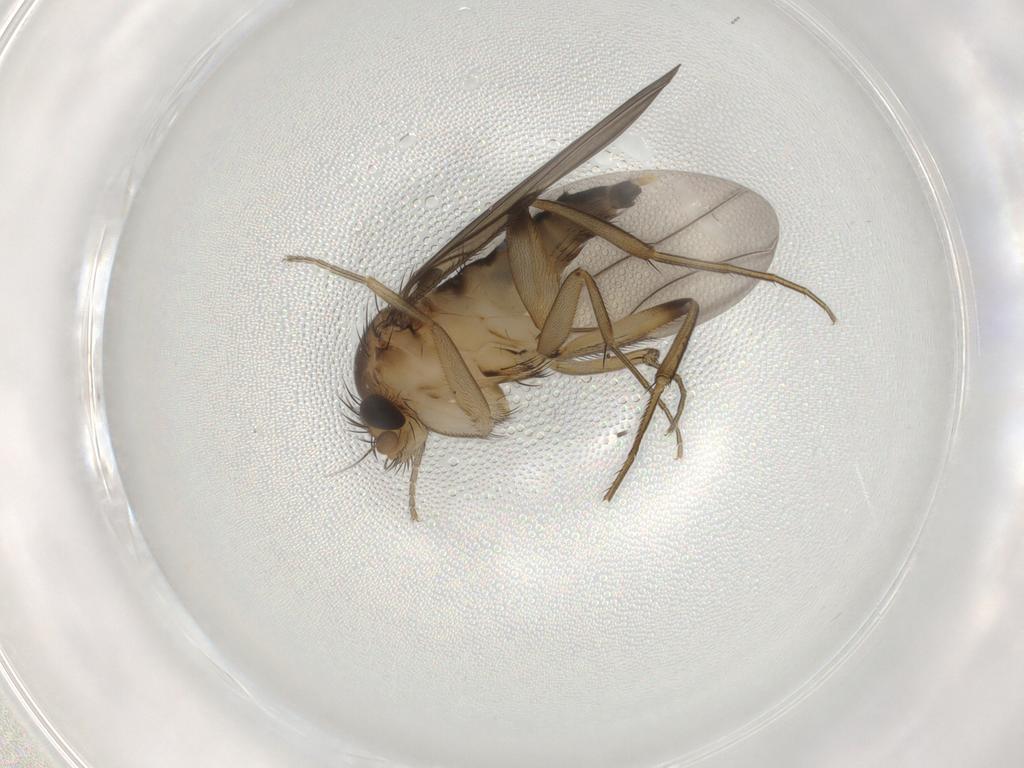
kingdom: Animalia
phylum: Arthropoda
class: Insecta
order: Diptera
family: Phoridae
